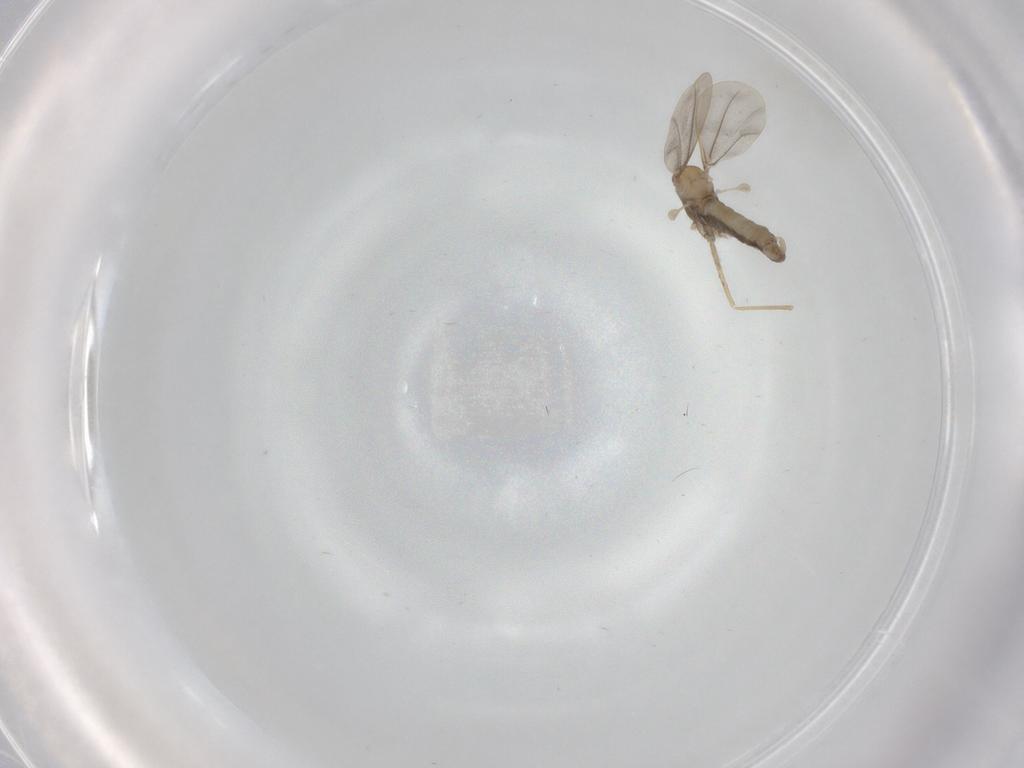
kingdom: Animalia
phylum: Arthropoda
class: Insecta
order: Diptera
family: Cecidomyiidae
